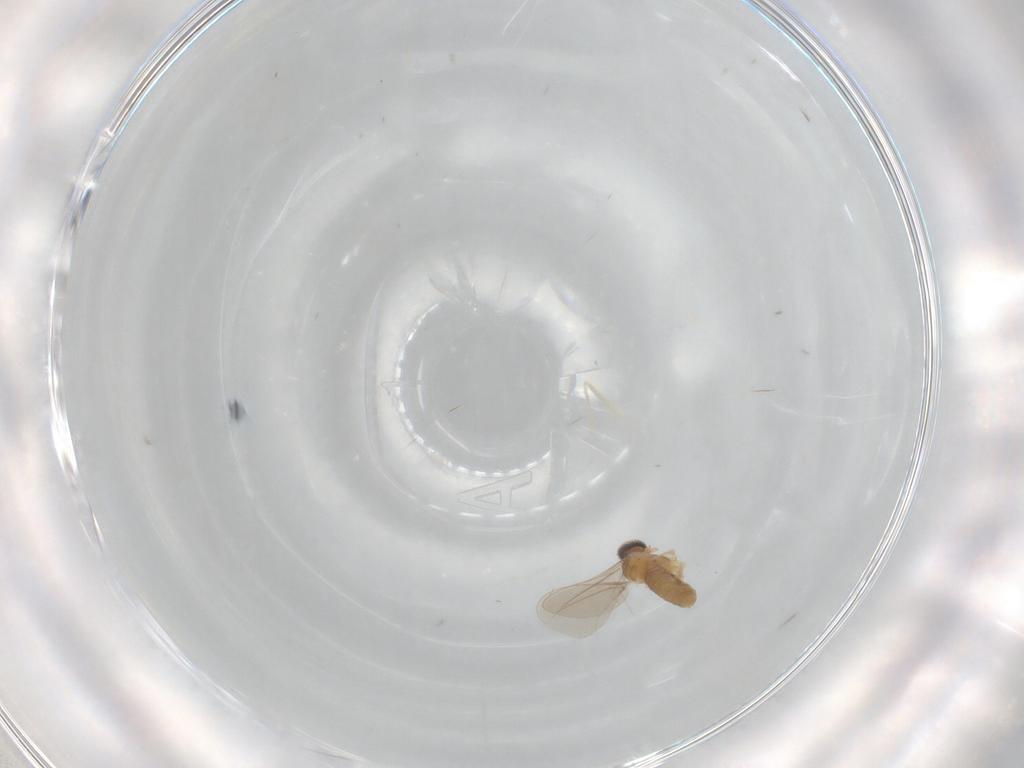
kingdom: Animalia
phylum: Arthropoda
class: Insecta
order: Diptera
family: Cecidomyiidae
